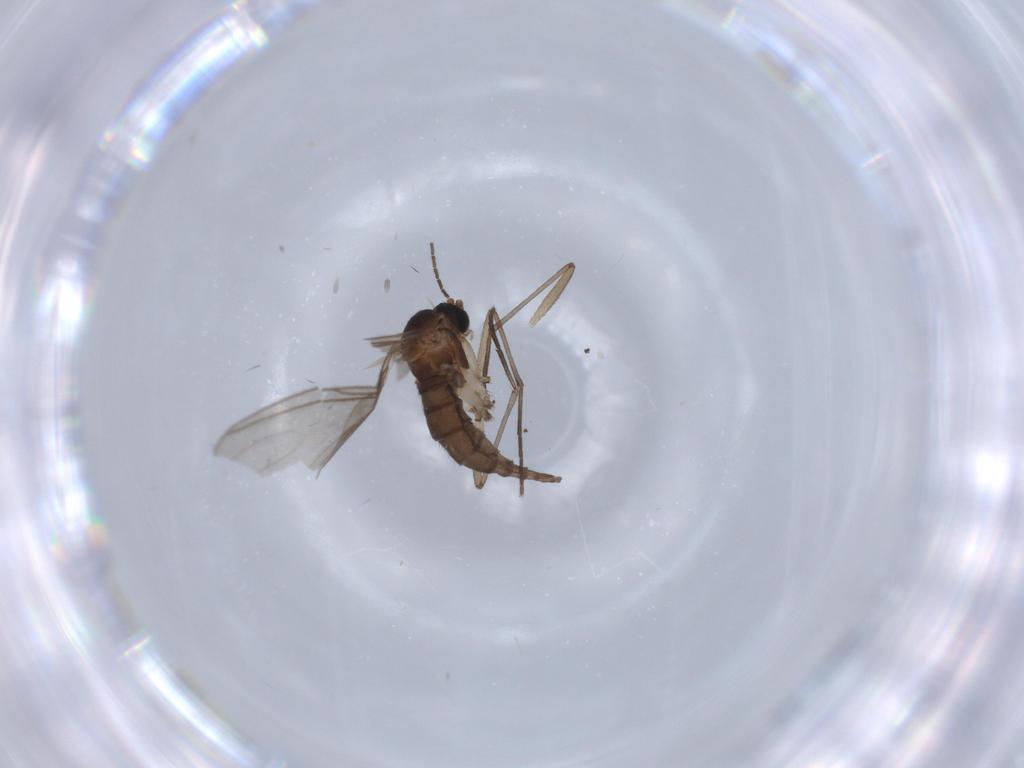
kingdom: Animalia
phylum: Arthropoda
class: Insecta
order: Diptera
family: Sciaridae
